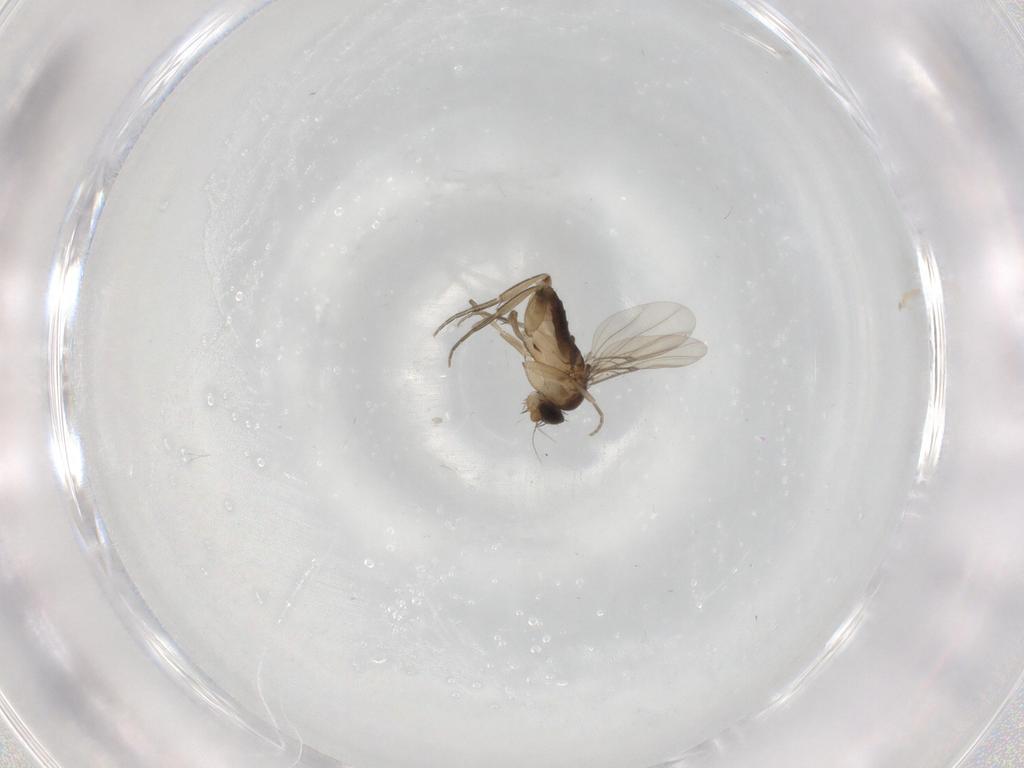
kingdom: Animalia
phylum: Arthropoda
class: Insecta
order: Diptera
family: Phoridae
